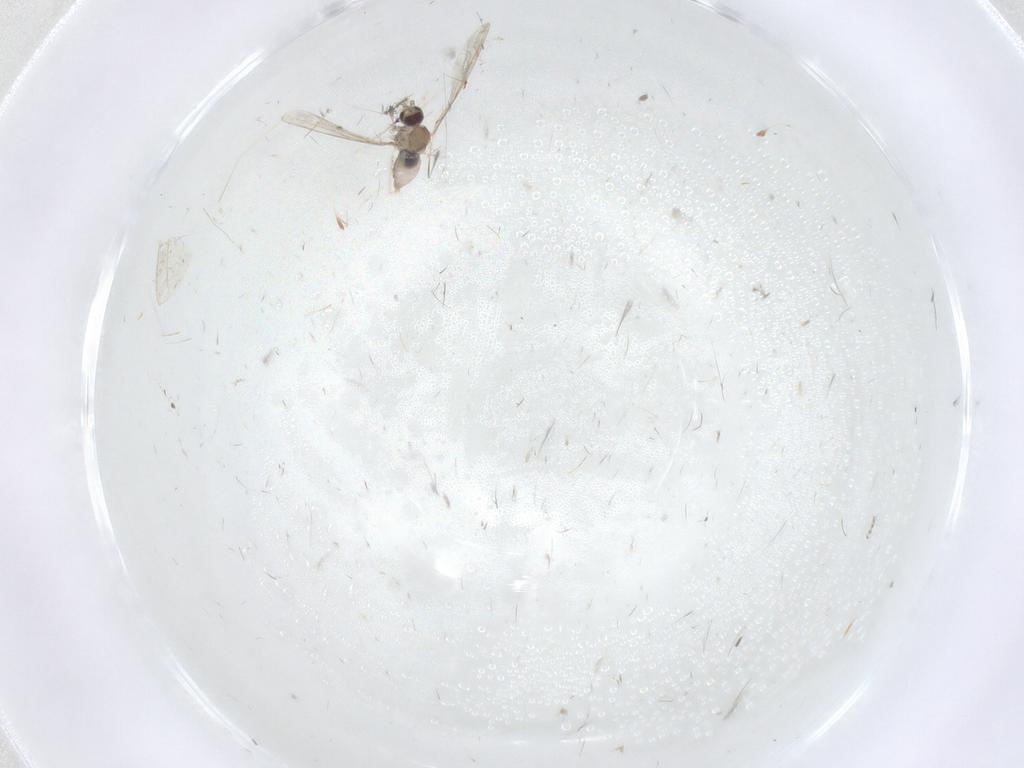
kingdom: Animalia
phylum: Arthropoda
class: Insecta
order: Diptera
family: Cecidomyiidae
